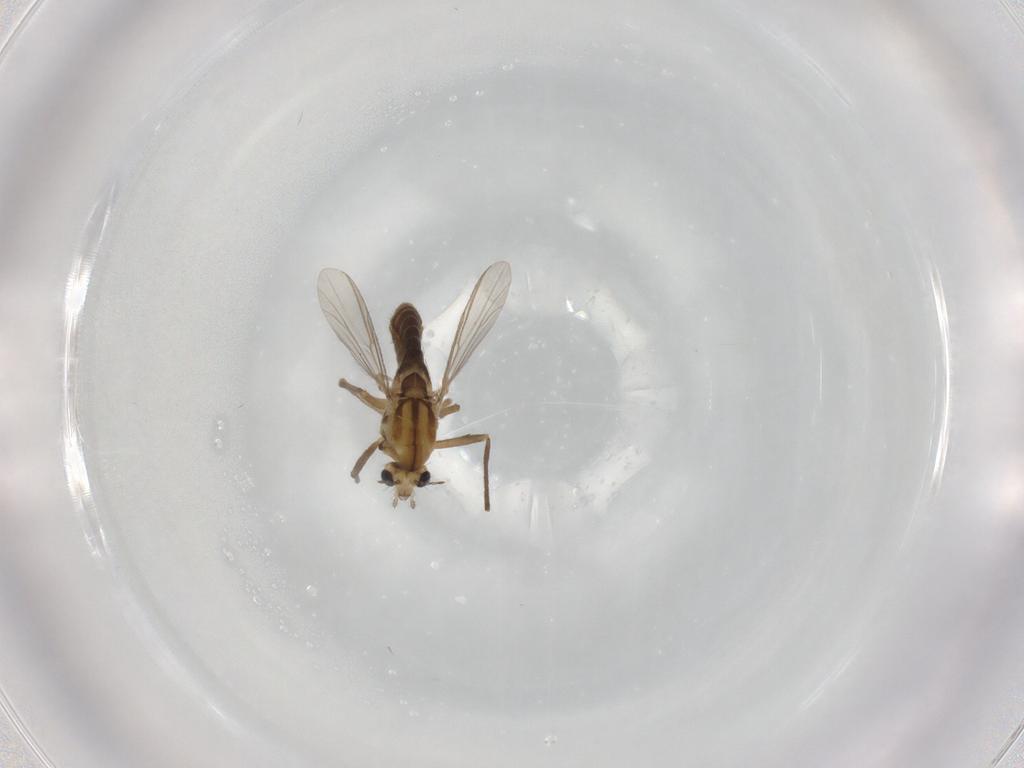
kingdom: Animalia
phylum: Arthropoda
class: Insecta
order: Diptera
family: Chironomidae
